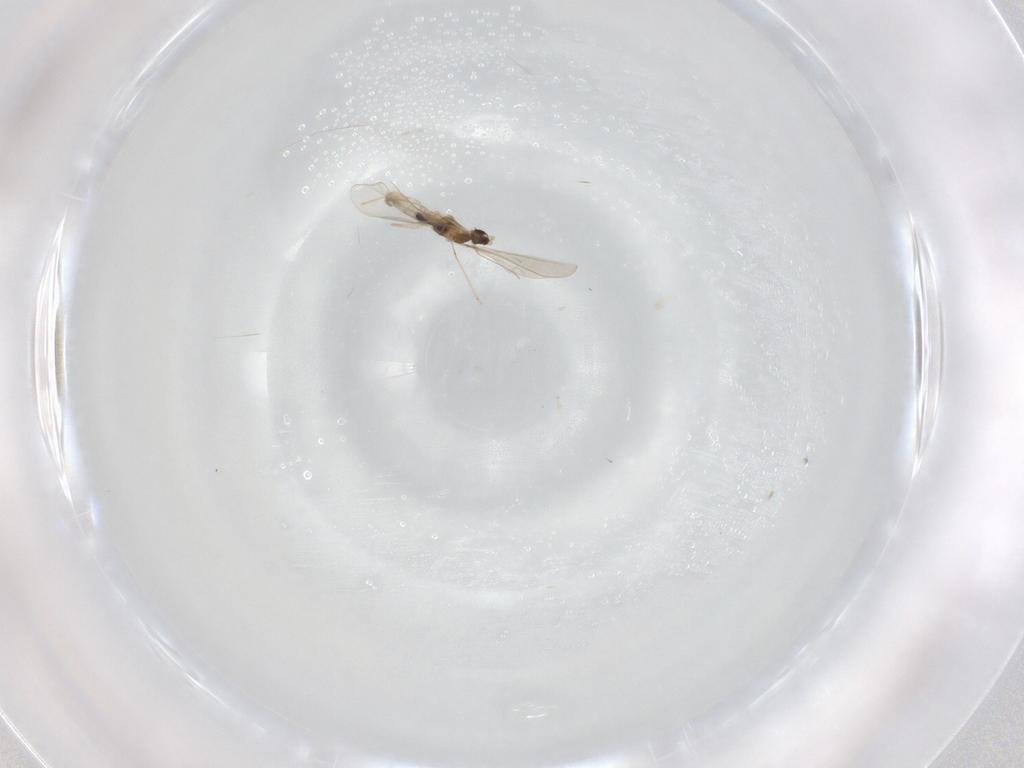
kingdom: Animalia
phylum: Arthropoda
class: Insecta
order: Diptera
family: Cecidomyiidae
